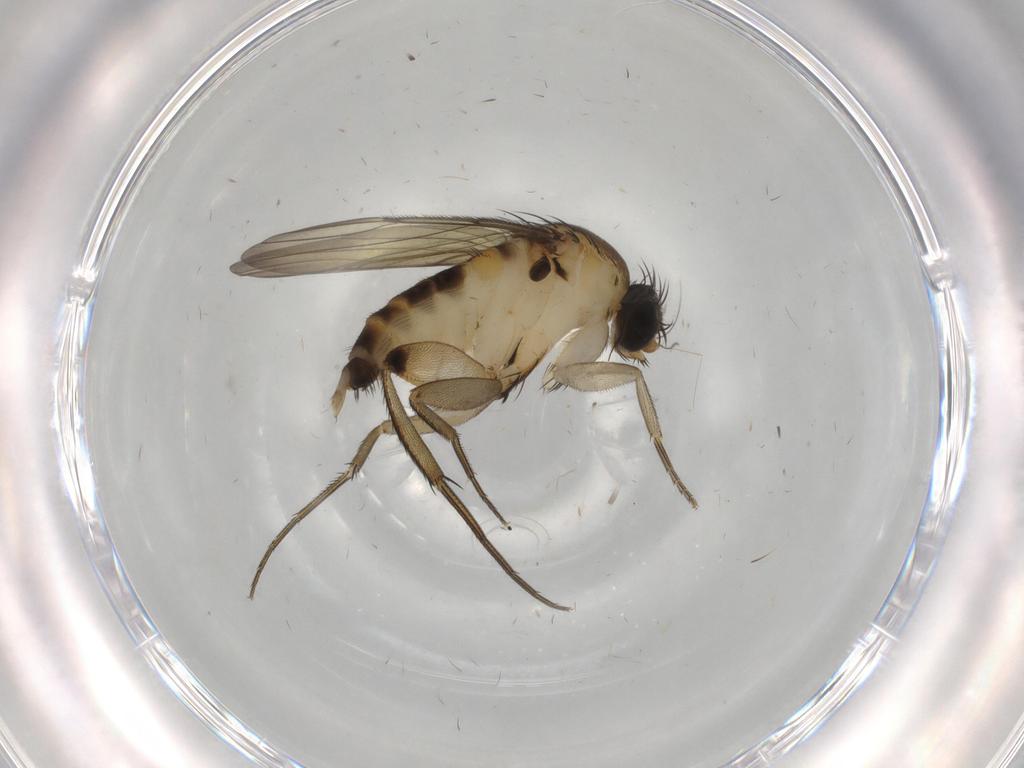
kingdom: Animalia
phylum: Arthropoda
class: Insecta
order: Diptera
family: Phoridae
